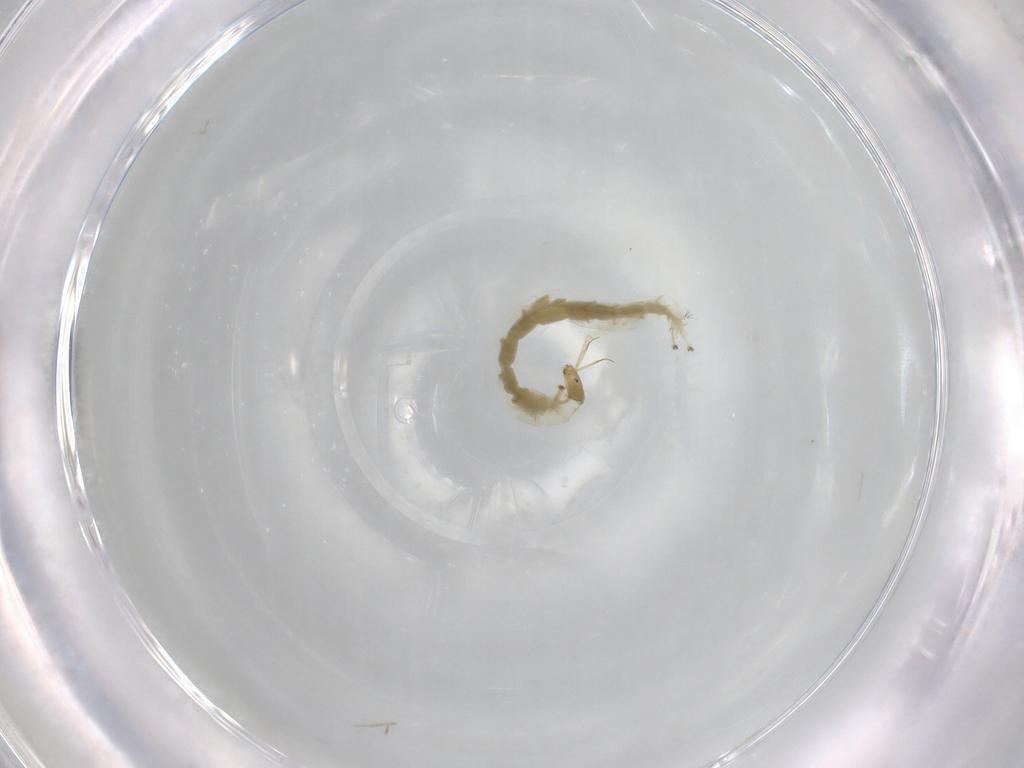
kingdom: Animalia
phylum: Arthropoda
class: Insecta
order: Diptera
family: Chironomidae
